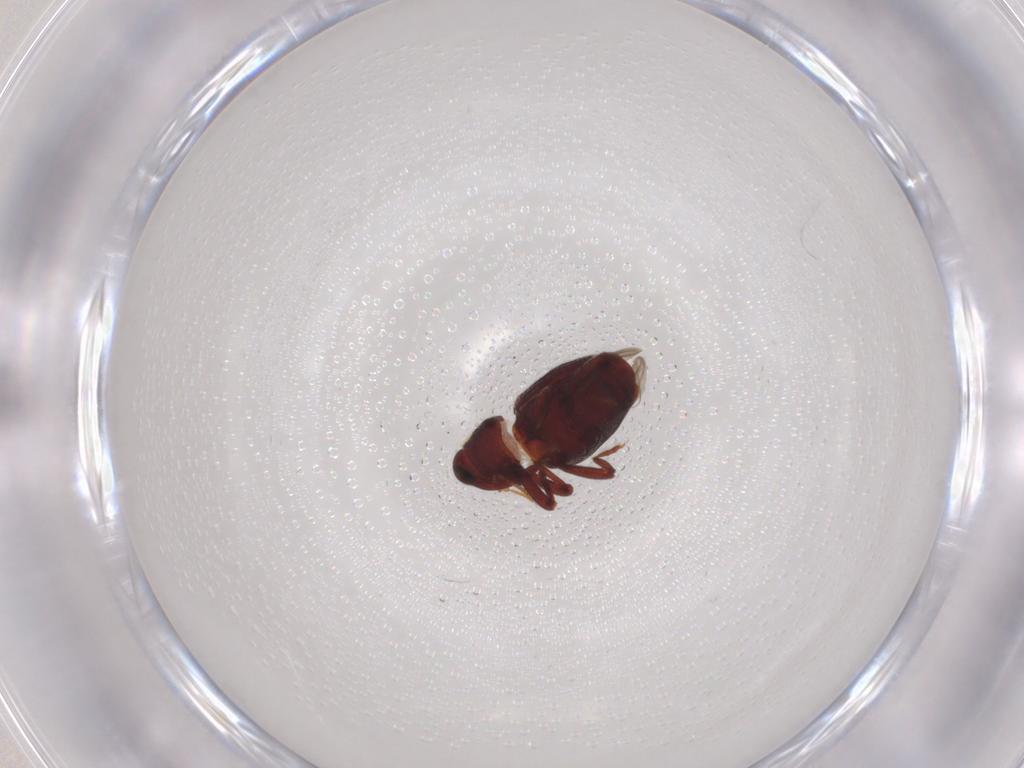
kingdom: Animalia
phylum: Arthropoda
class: Insecta
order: Coleoptera
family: Curculionidae
